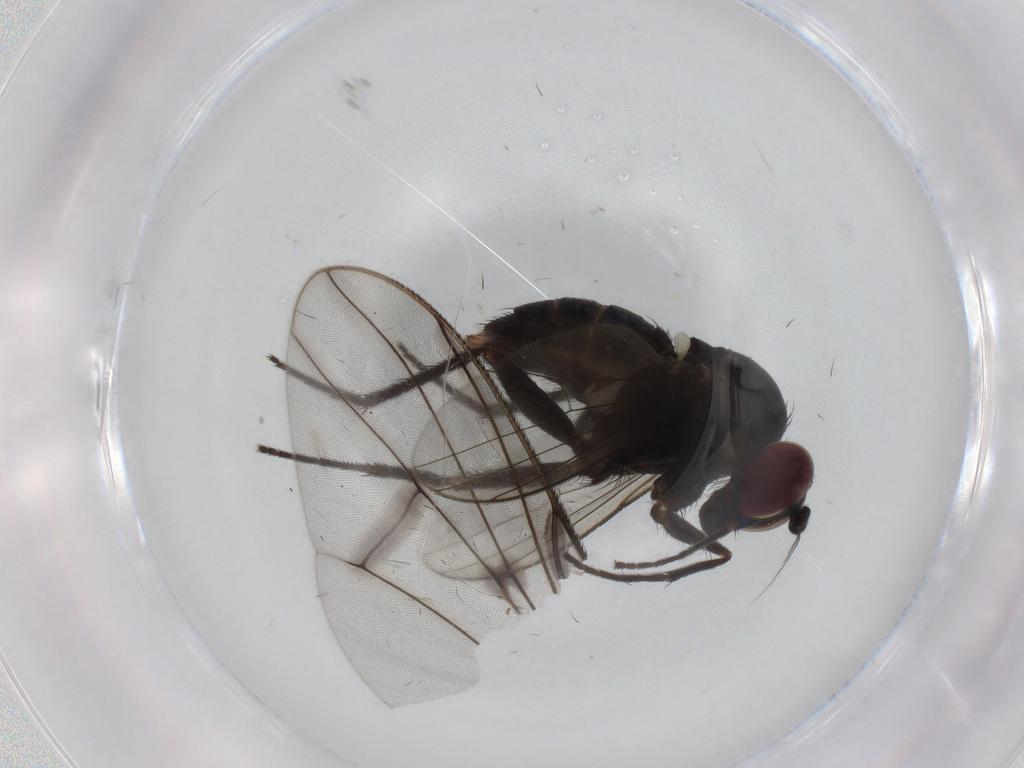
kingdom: Animalia
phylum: Arthropoda
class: Insecta
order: Diptera
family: Dolichopodidae
